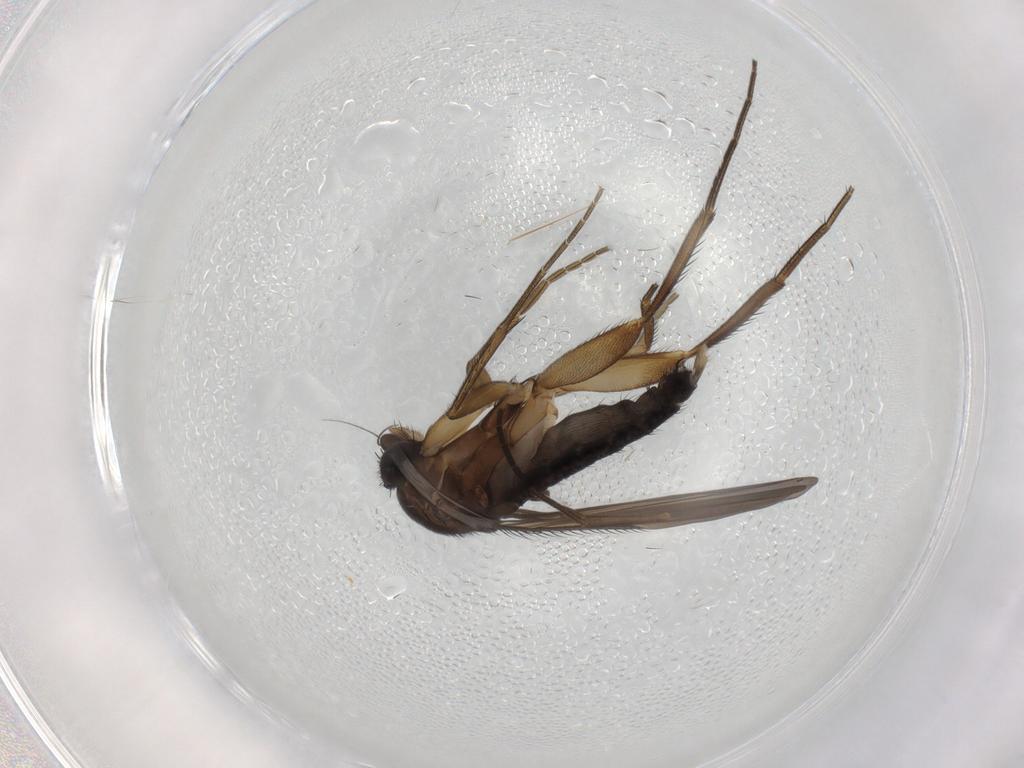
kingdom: Animalia
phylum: Arthropoda
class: Insecta
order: Diptera
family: Phoridae
